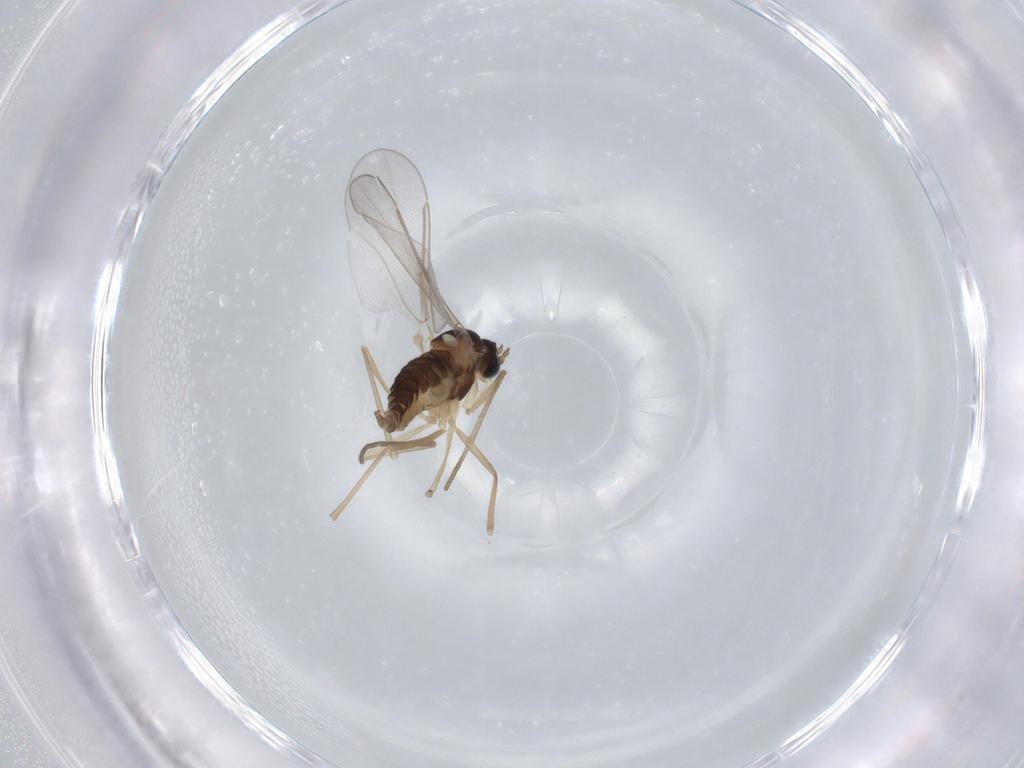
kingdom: Animalia
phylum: Arthropoda
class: Insecta
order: Diptera
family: Cecidomyiidae
